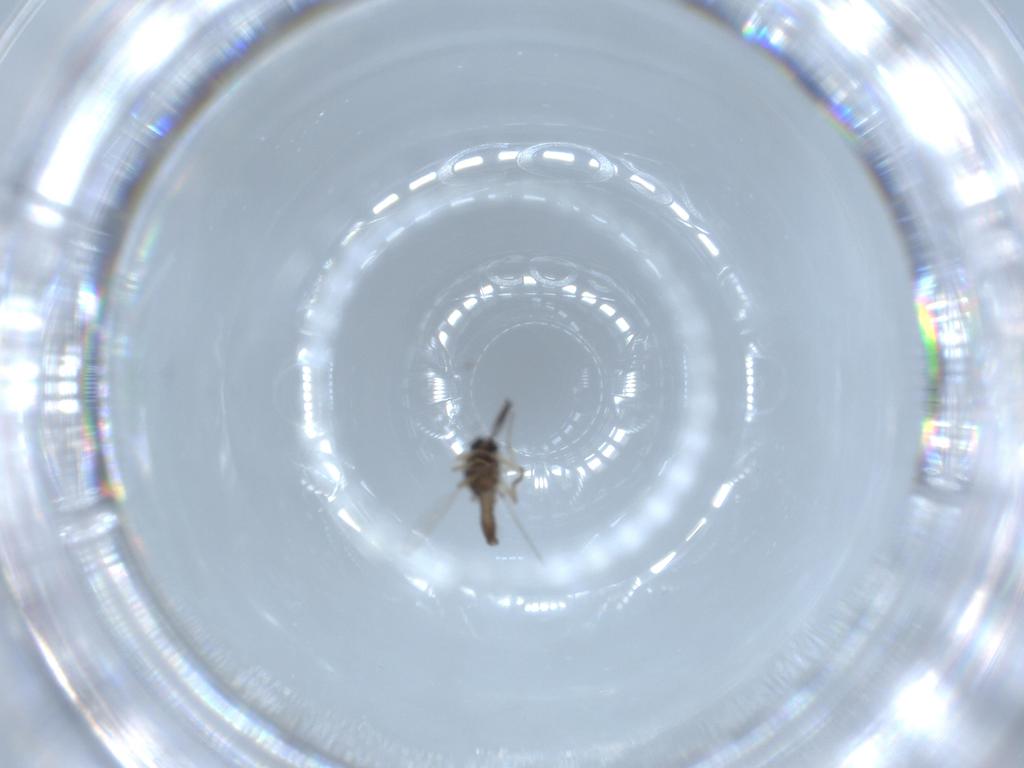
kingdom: Animalia
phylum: Arthropoda
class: Insecta
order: Diptera
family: Ceratopogonidae
